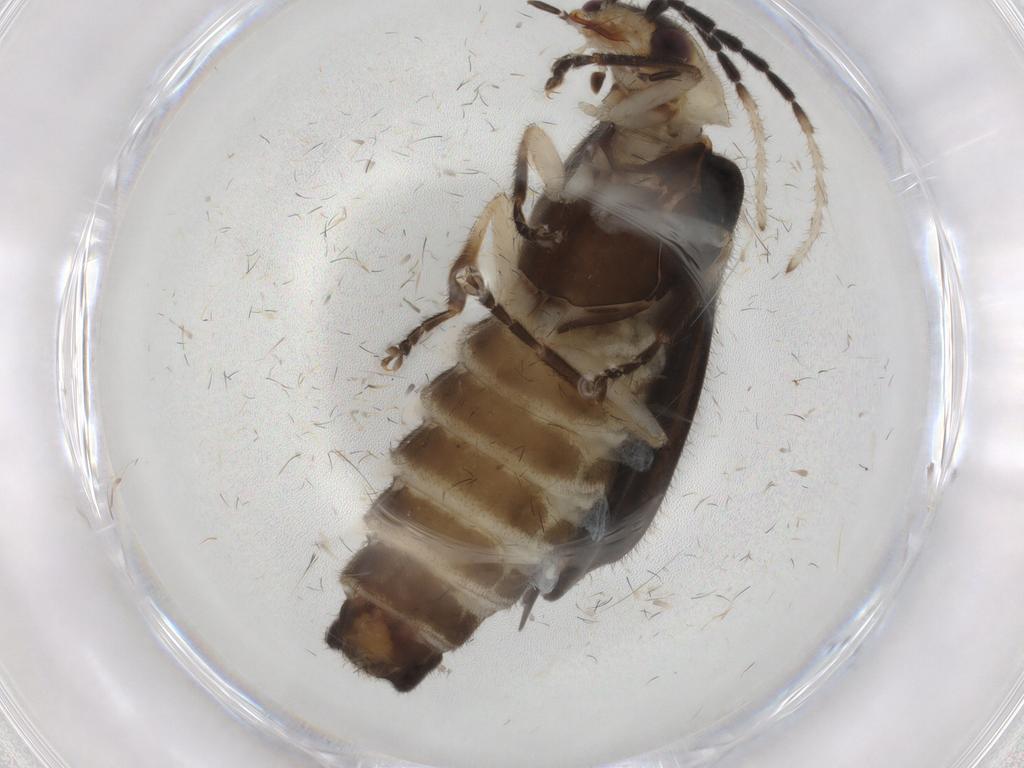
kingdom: Animalia
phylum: Arthropoda
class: Insecta
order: Coleoptera
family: Cantharidae
